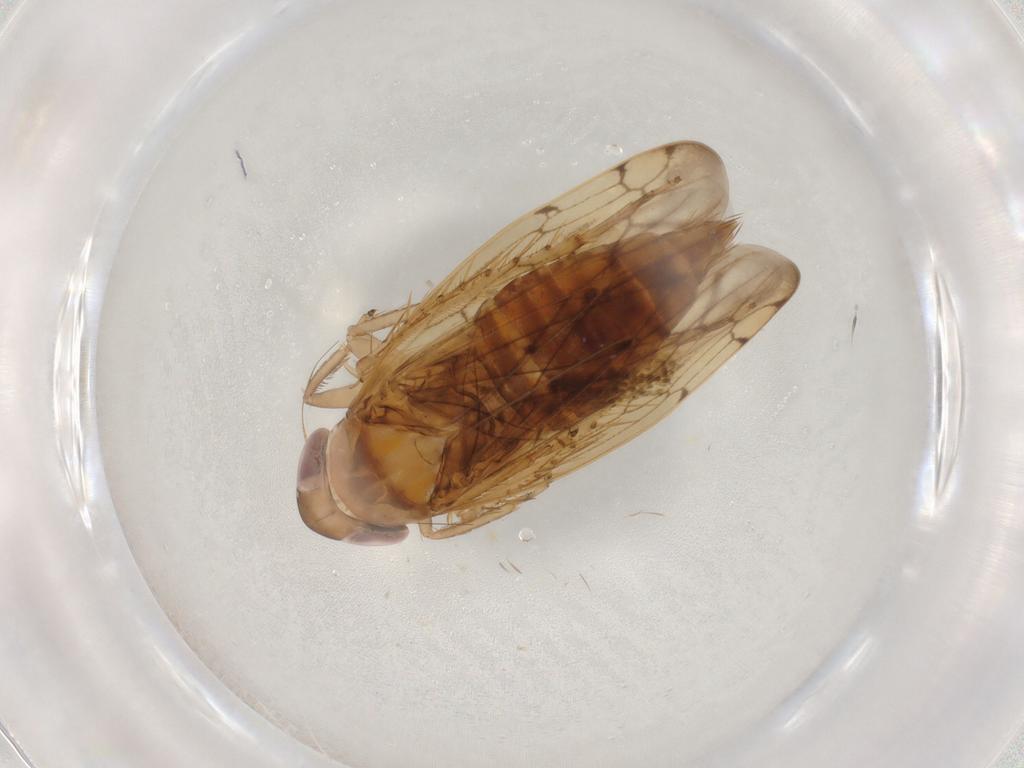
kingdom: Animalia
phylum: Arthropoda
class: Insecta
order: Hemiptera
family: Cicadellidae
